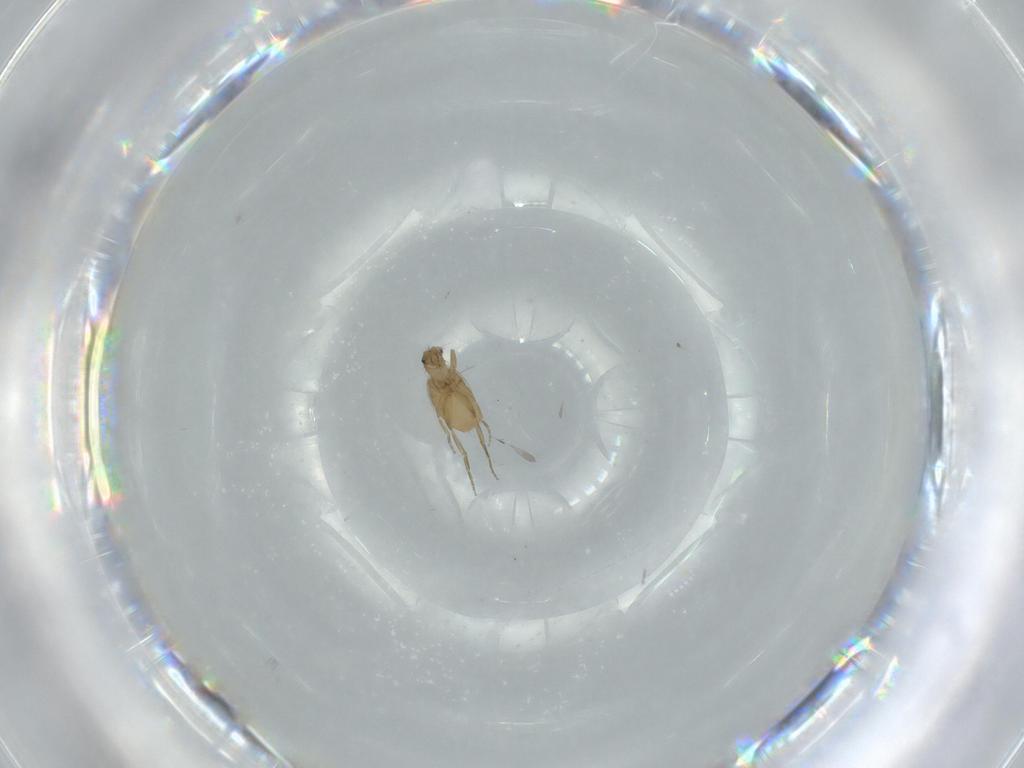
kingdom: Animalia
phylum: Arthropoda
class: Insecta
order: Diptera
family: Phoridae
